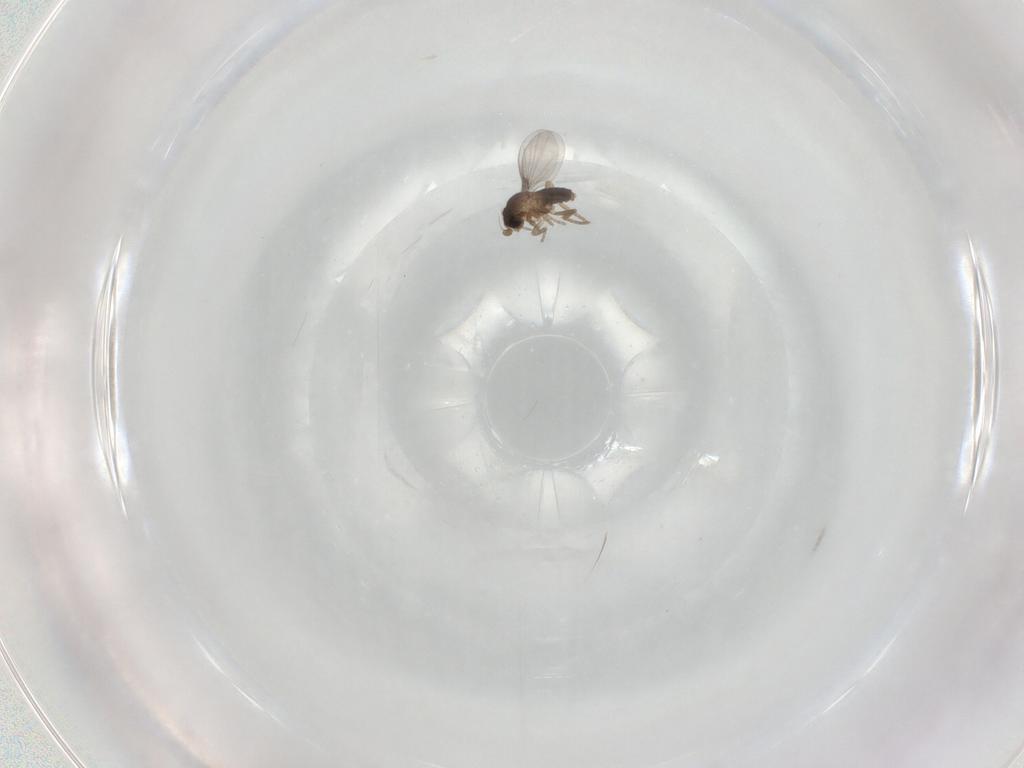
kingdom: Animalia
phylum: Arthropoda
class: Insecta
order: Diptera
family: Phoridae
